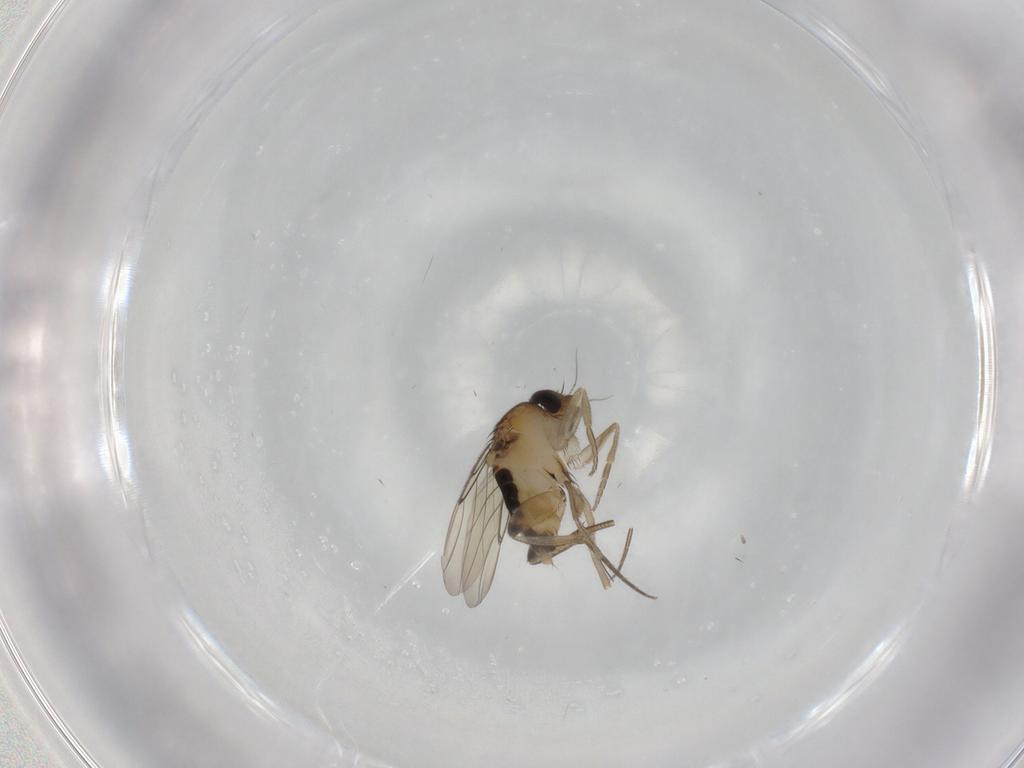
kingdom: Animalia
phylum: Arthropoda
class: Insecta
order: Diptera
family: Phoridae
